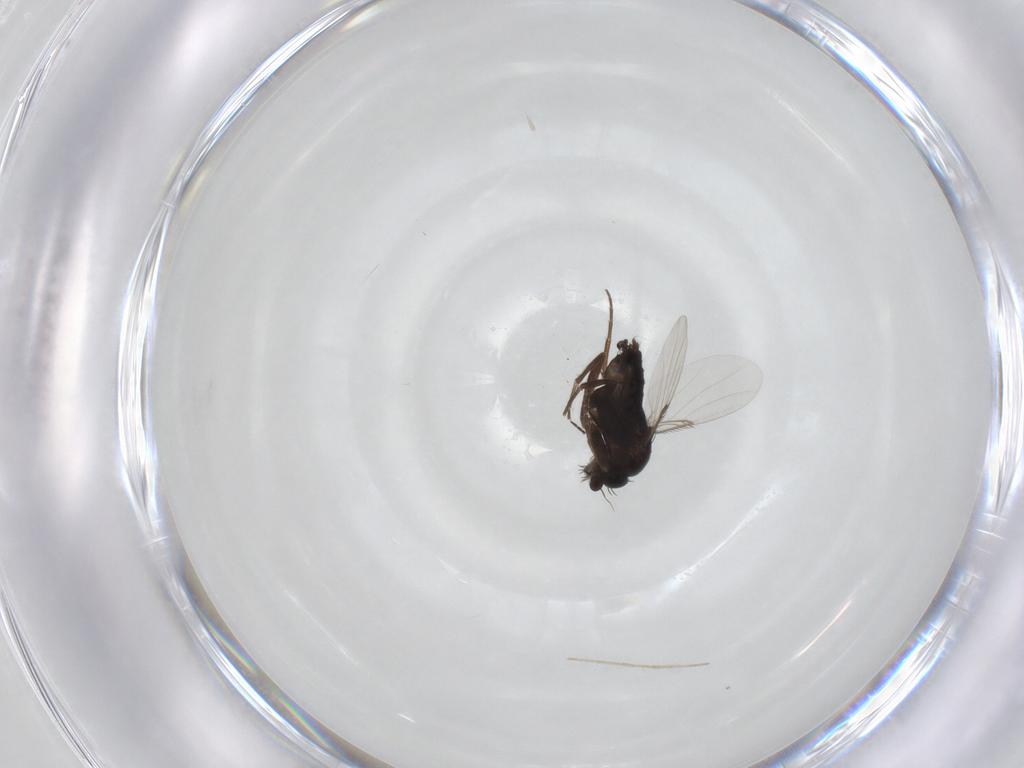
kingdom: Animalia
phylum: Arthropoda
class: Insecta
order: Diptera
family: Phoridae
